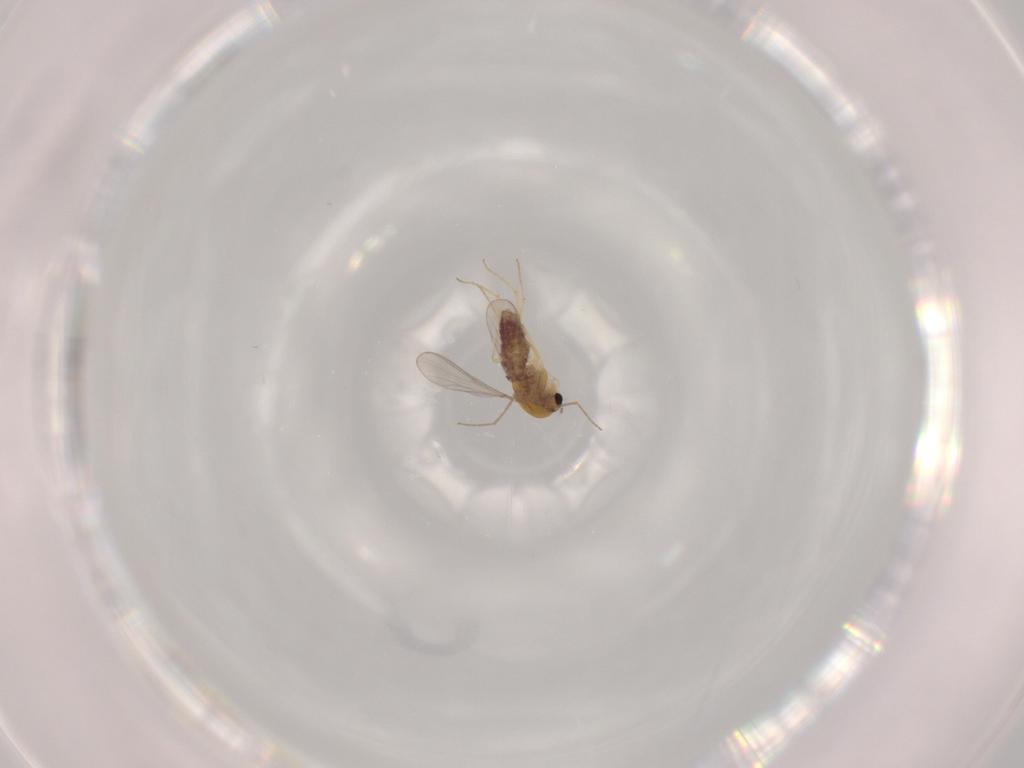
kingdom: Animalia
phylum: Arthropoda
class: Insecta
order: Diptera
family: Chironomidae
